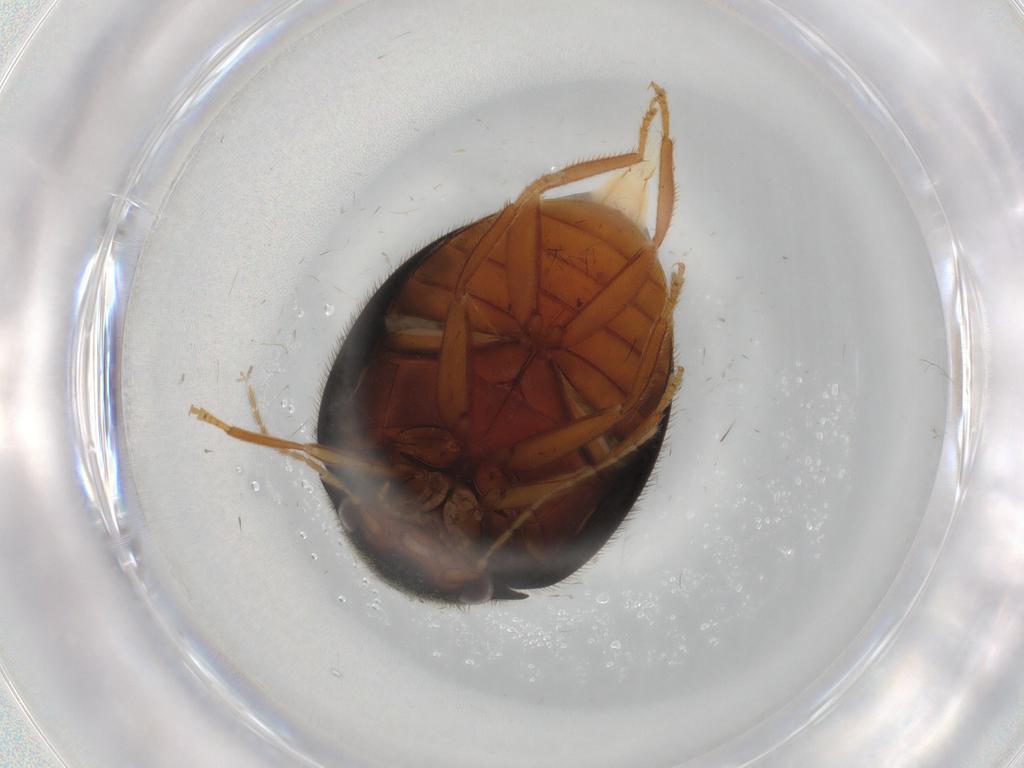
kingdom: Animalia
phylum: Arthropoda
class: Insecta
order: Coleoptera
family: Scirtidae
